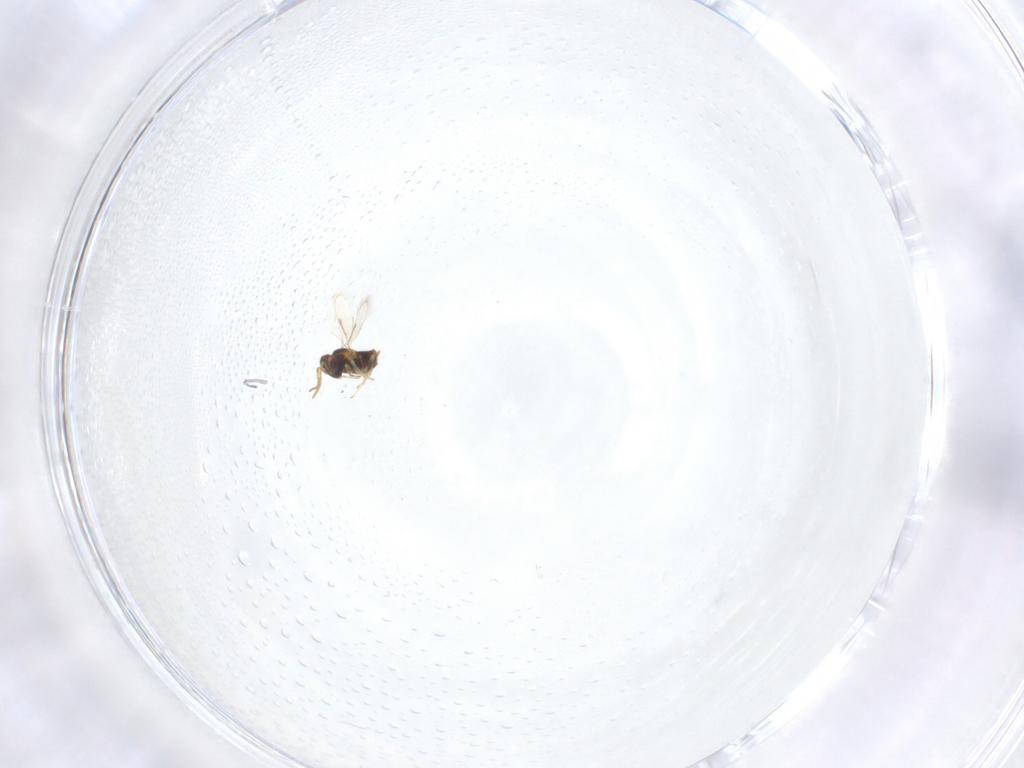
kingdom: Animalia
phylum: Arthropoda
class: Insecta
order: Hymenoptera
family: Aphelinidae
